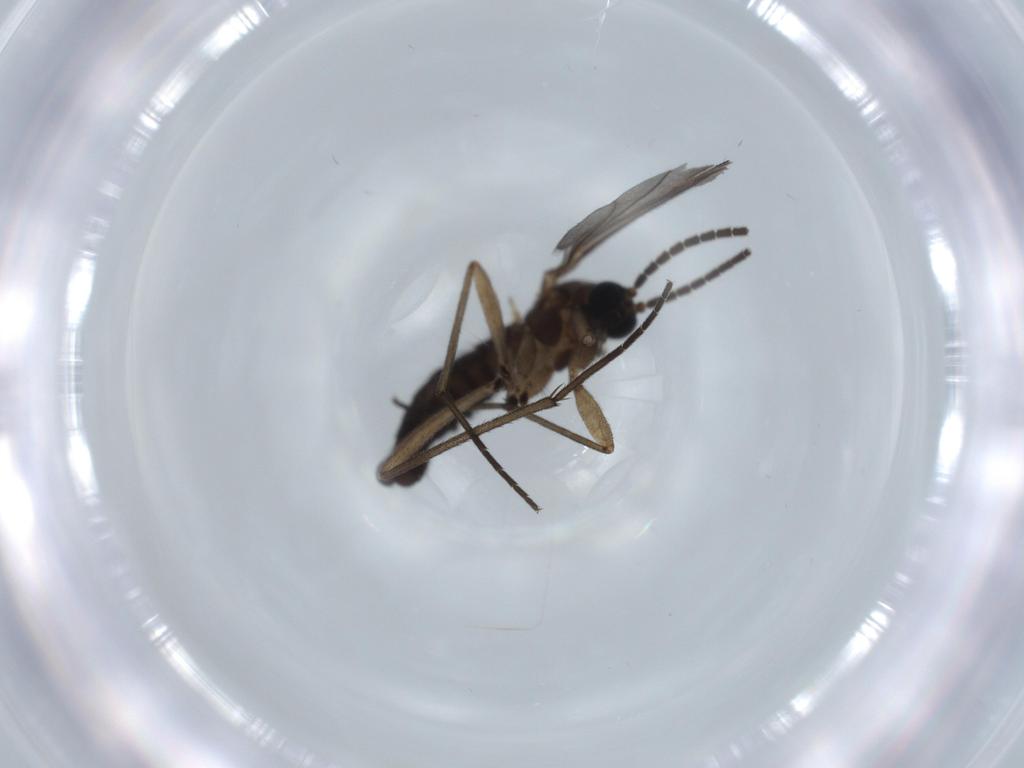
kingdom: Animalia
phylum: Arthropoda
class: Insecta
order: Diptera
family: Sciaridae
